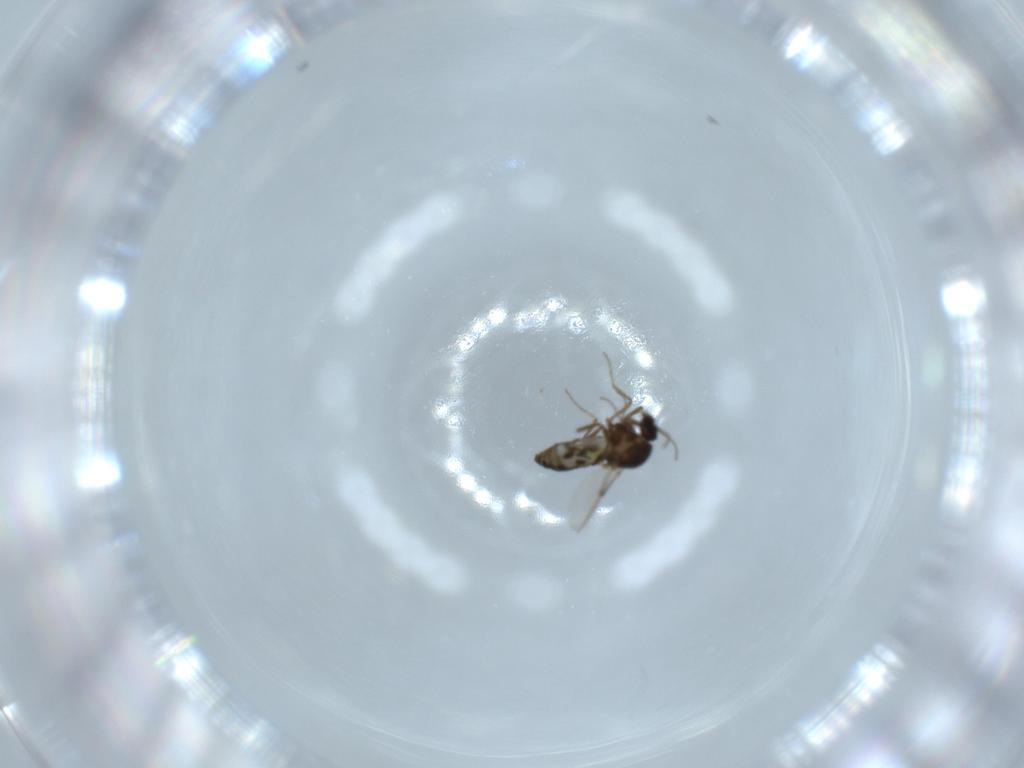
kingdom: Animalia
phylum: Arthropoda
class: Insecta
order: Diptera
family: Ceratopogonidae
